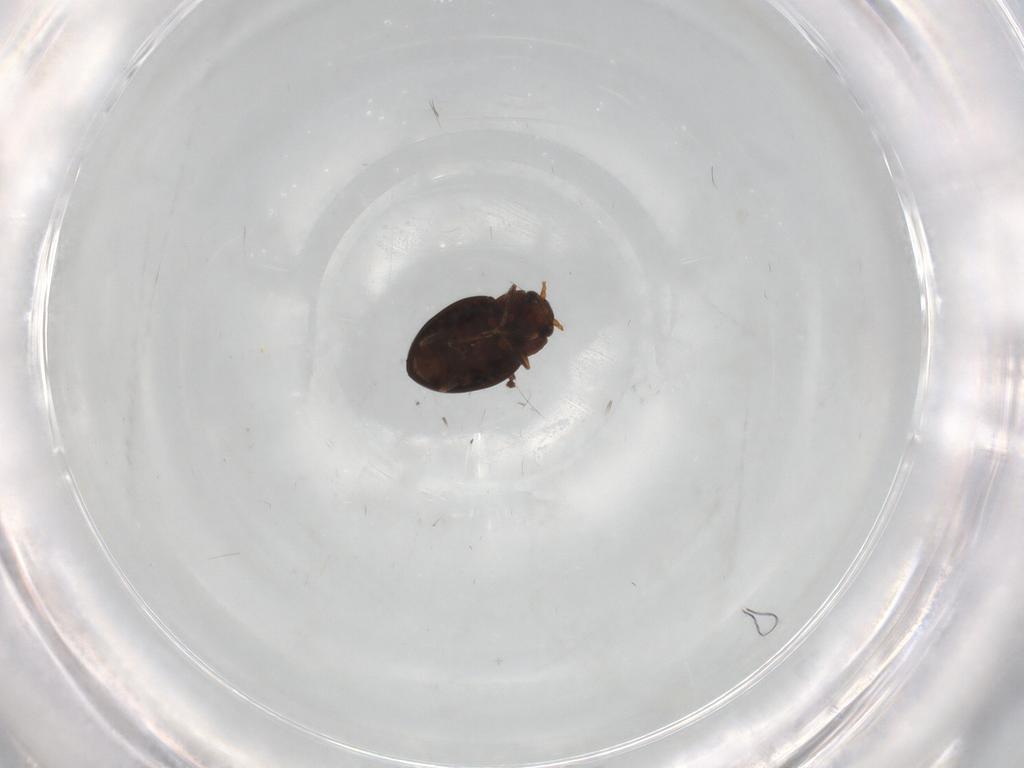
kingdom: Animalia
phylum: Arthropoda
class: Insecta
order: Coleoptera
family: Erotylidae
